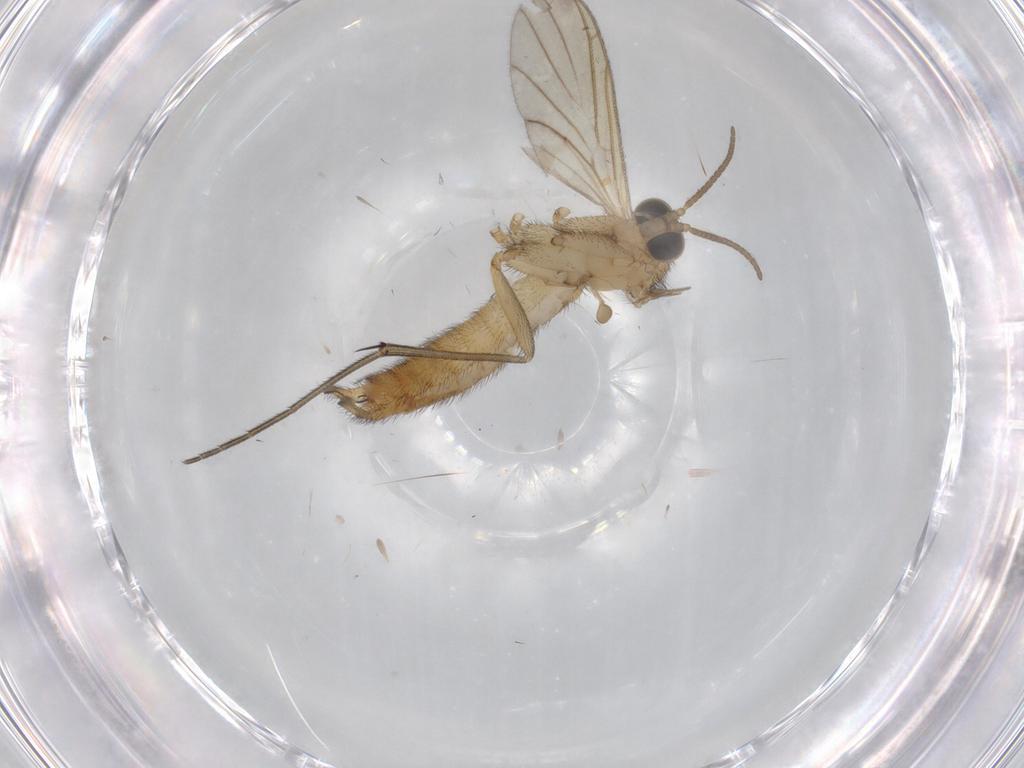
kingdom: Animalia
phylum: Arthropoda
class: Insecta
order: Diptera
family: Keroplatidae
